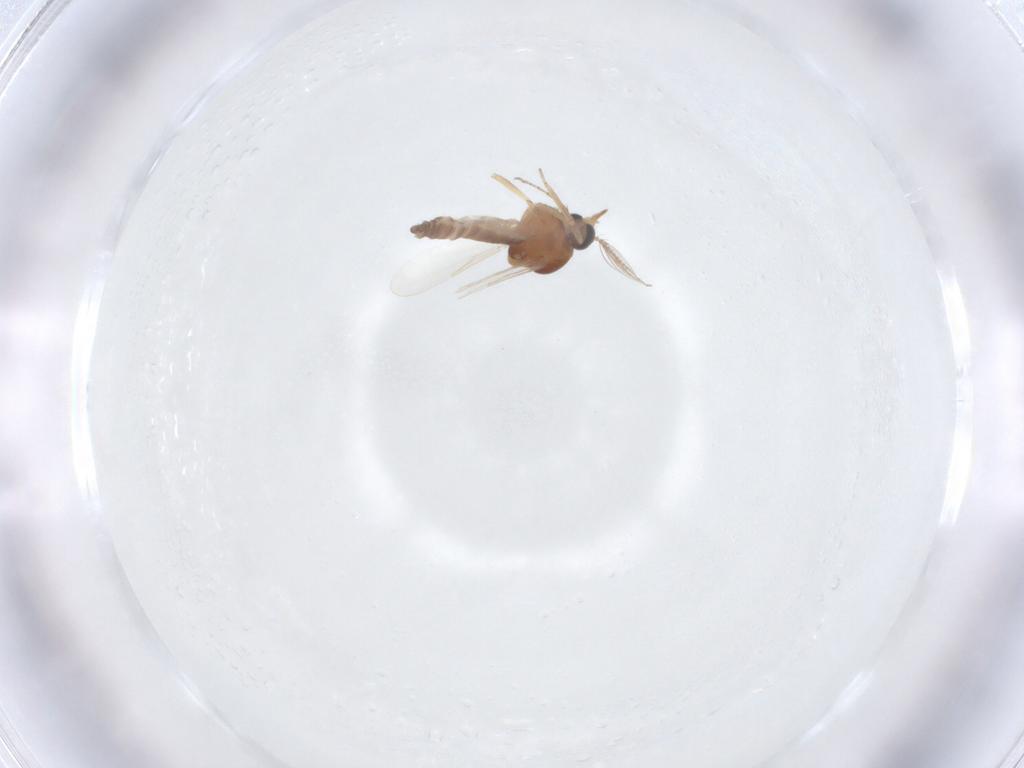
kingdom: Animalia
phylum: Arthropoda
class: Insecta
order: Diptera
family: Ceratopogonidae
